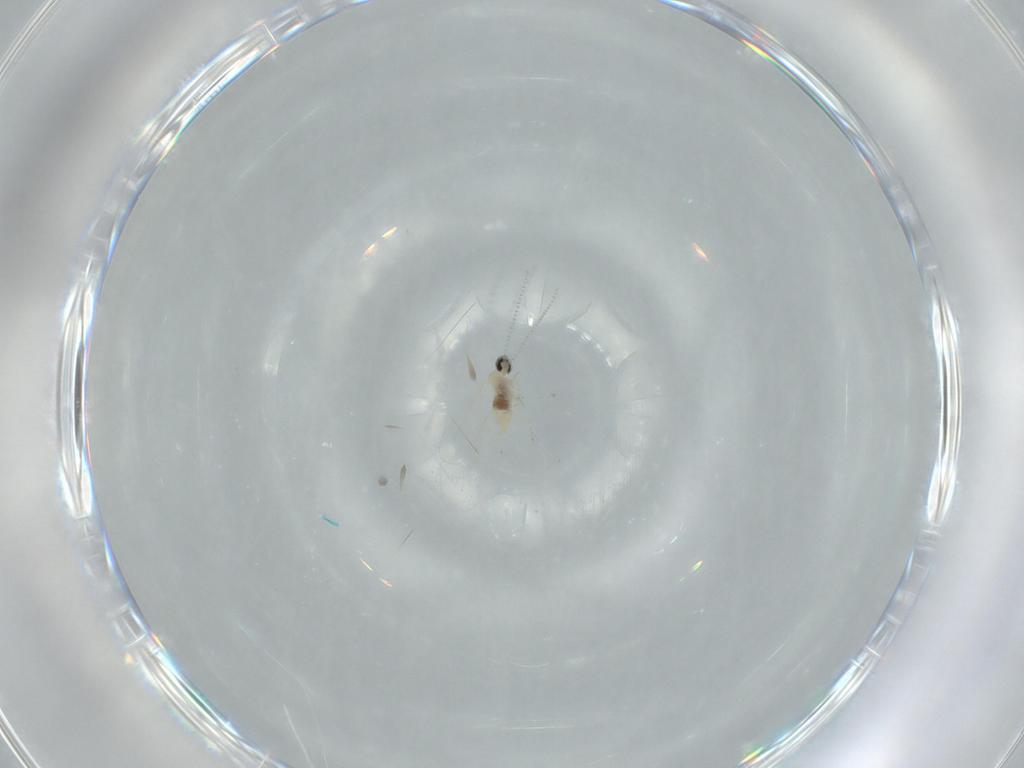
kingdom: Animalia
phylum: Arthropoda
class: Insecta
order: Diptera
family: Cecidomyiidae
